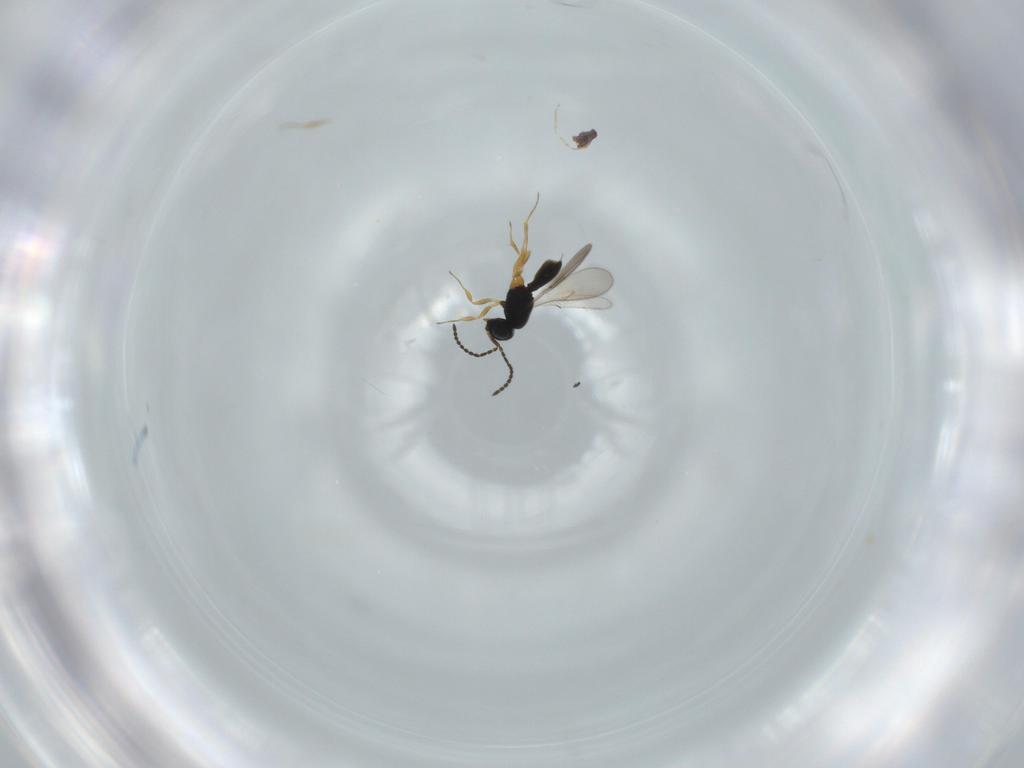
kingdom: Animalia
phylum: Arthropoda
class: Insecta
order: Hymenoptera
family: Scelionidae
